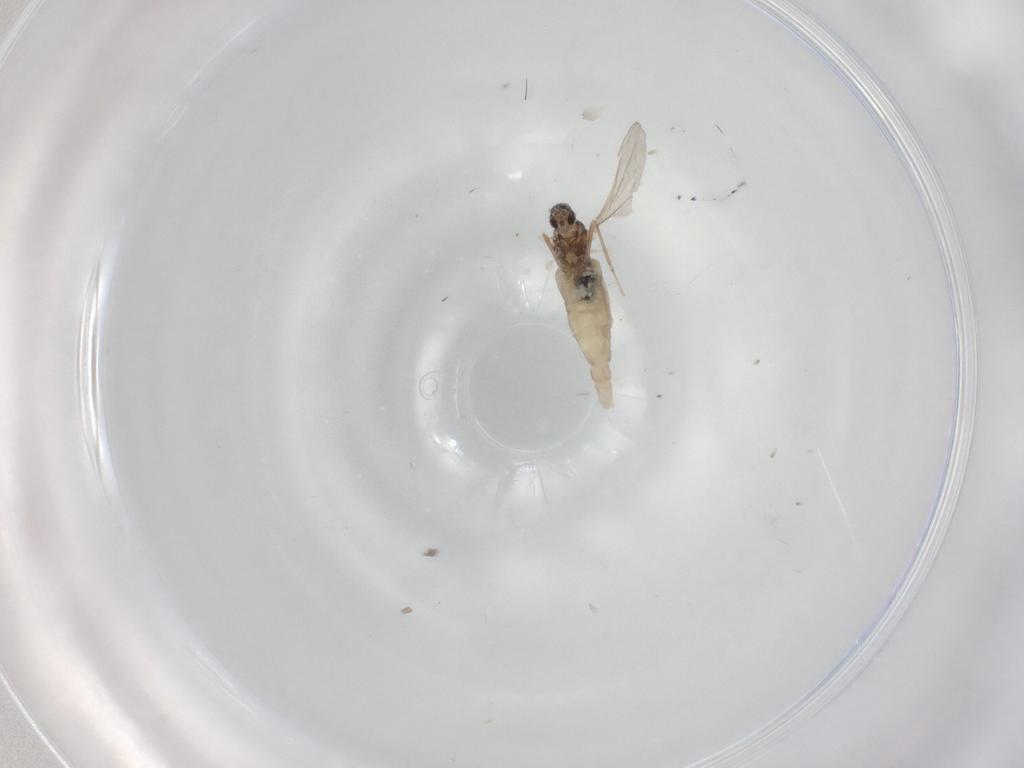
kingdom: Animalia
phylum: Arthropoda
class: Insecta
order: Diptera
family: Cecidomyiidae
